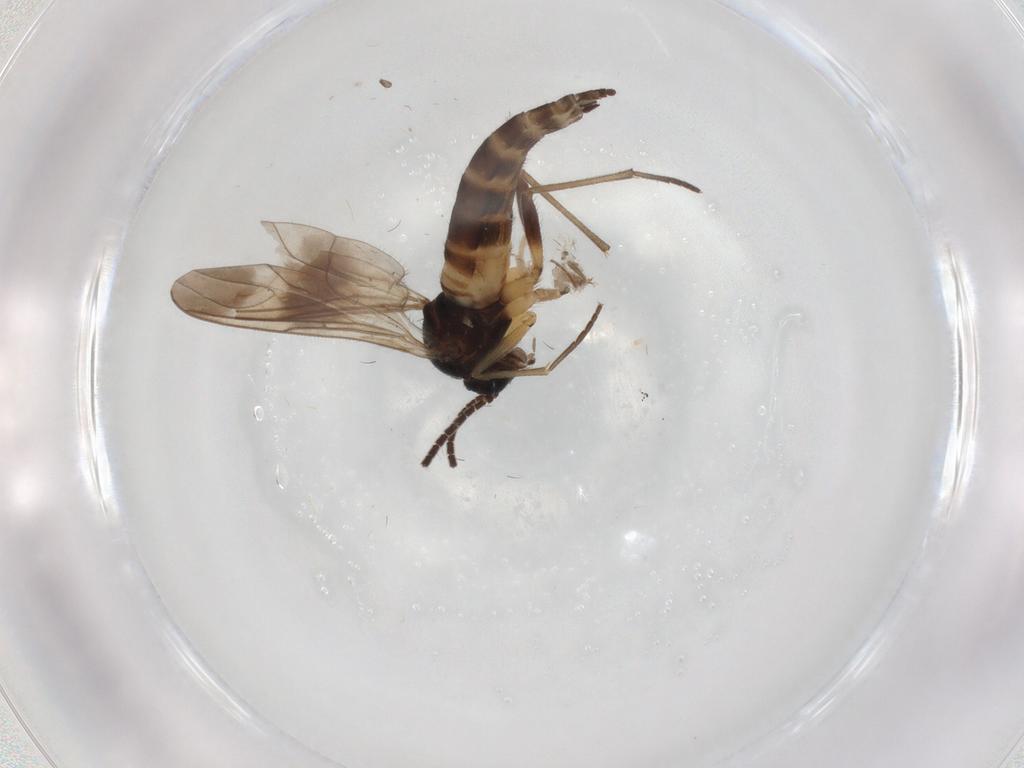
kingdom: Animalia
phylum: Arthropoda
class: Insecta
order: Diptera
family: Sciaridae
